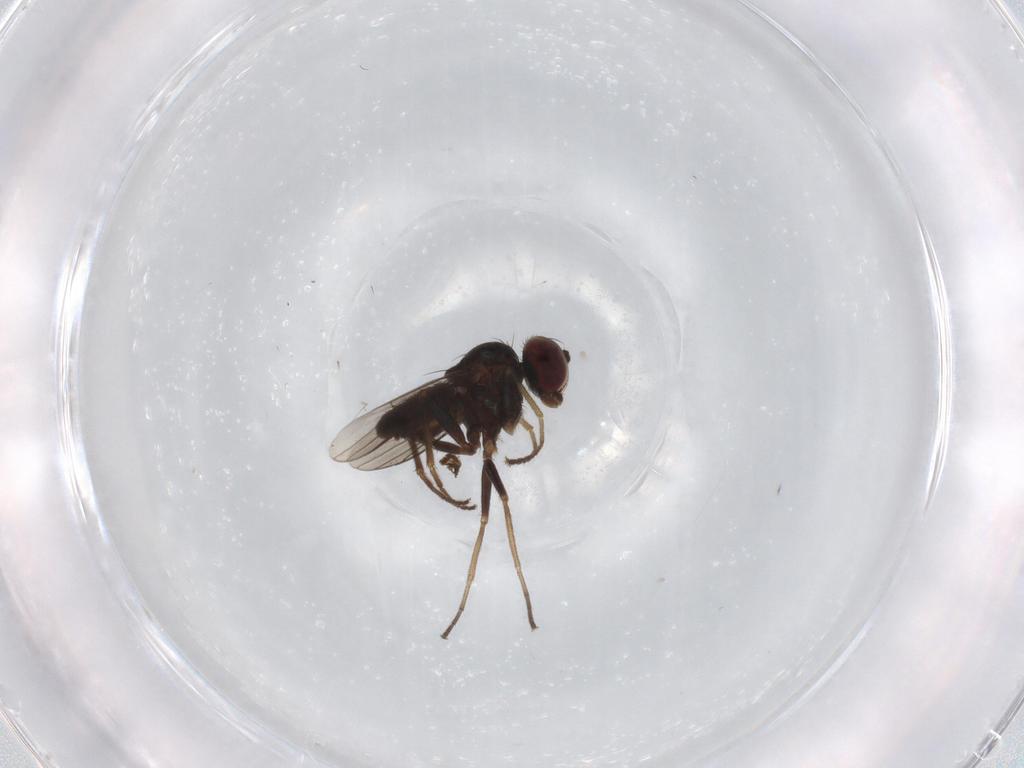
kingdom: Animalia
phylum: Arthropoda
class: Insecta
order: Diptera
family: Dolichopodidae
